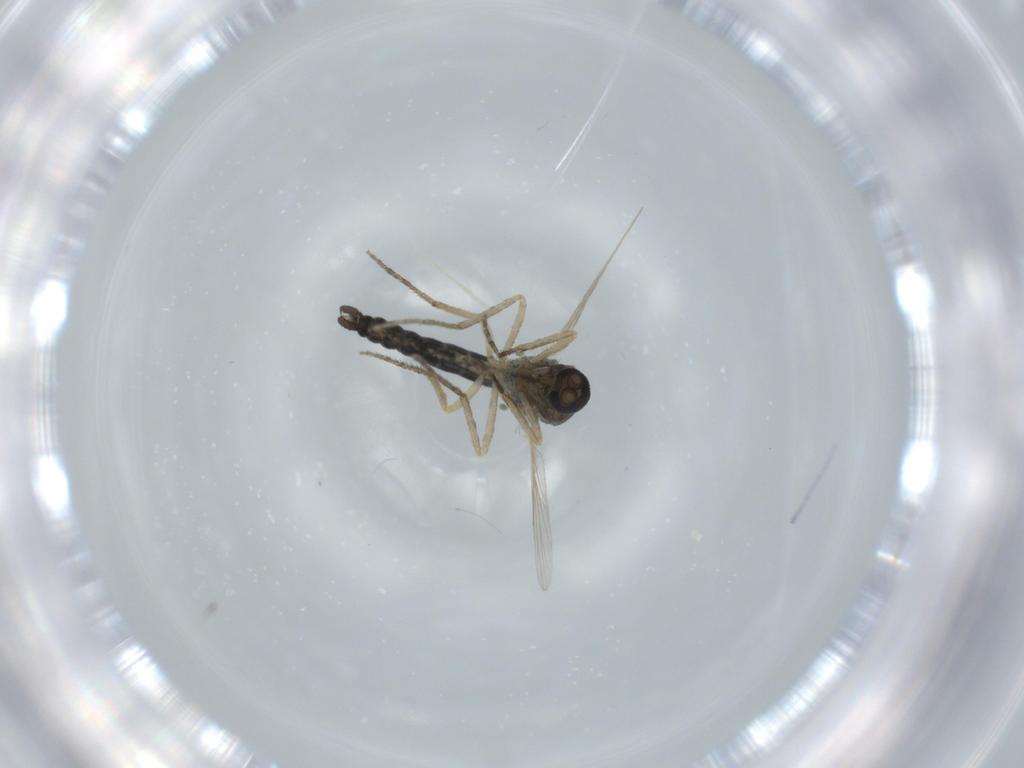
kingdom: Animalia
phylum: Arthropoda
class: Insecta
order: Diptera
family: Ceratopogonidae
